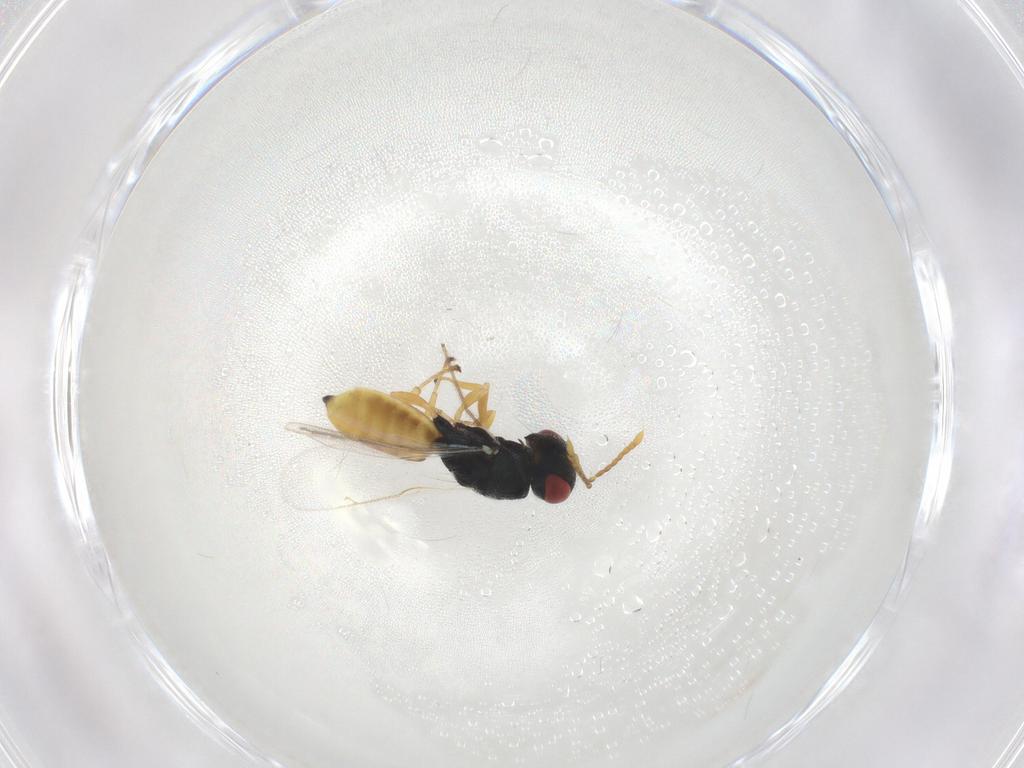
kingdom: Animalia
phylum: Arthropoda
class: Insecta
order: Hymenoptera
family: Pteromalidae
